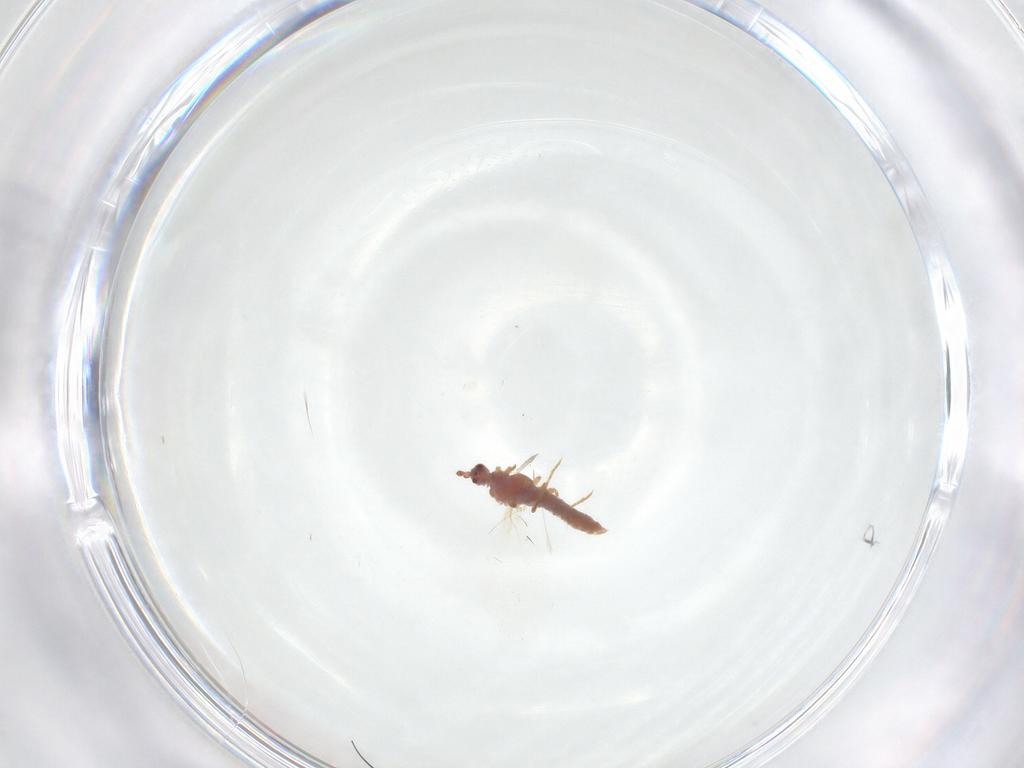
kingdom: Animalia
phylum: Arthropoda
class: Insecta
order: Diptera
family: Tachinidae
